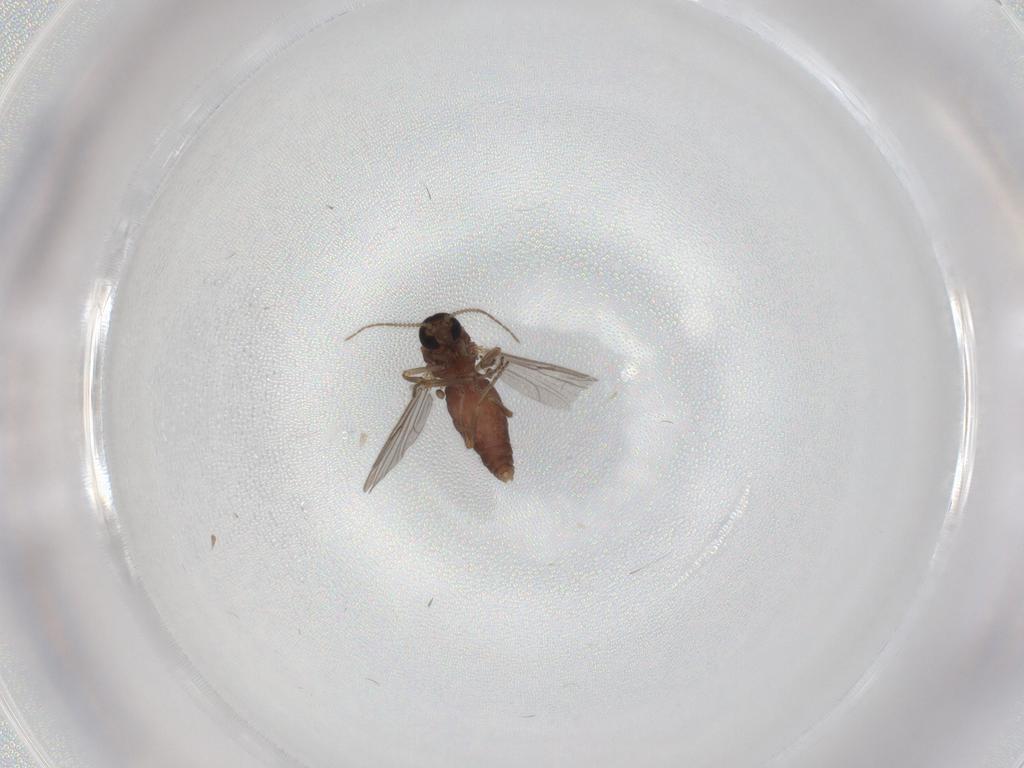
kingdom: Animalia
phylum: Arthropoda
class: Insecta
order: Diptera
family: Ceratopogonidae
